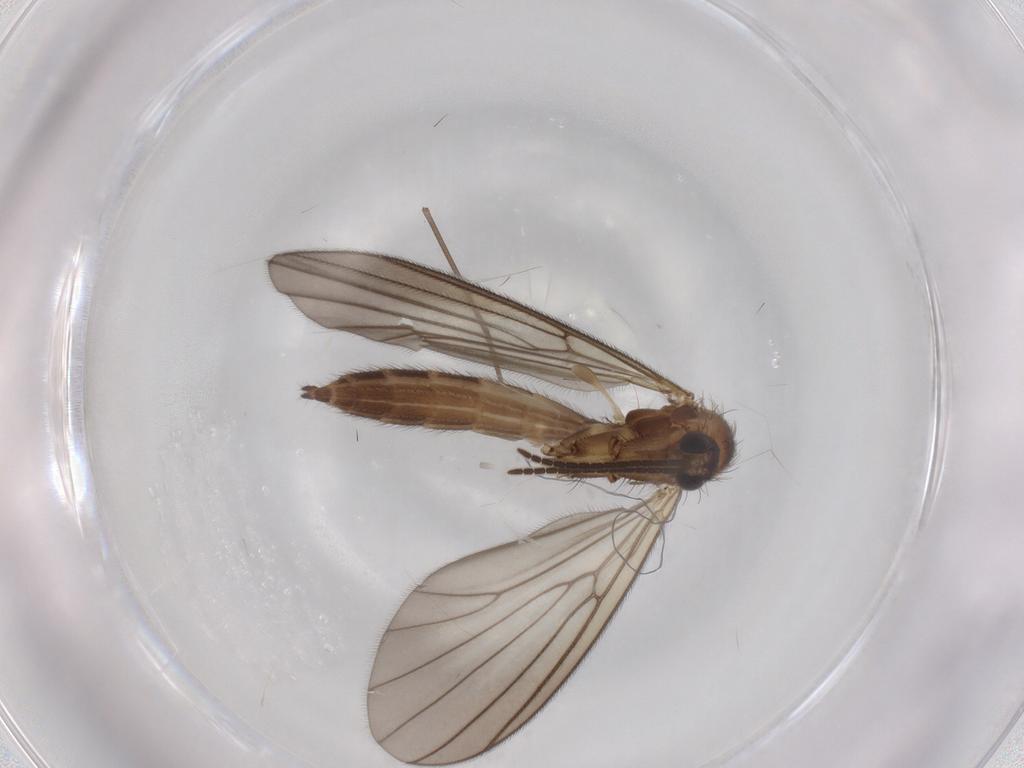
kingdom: Animalia
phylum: Arthropoda
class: Insecta
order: Diptera
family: Mycetophilidae
